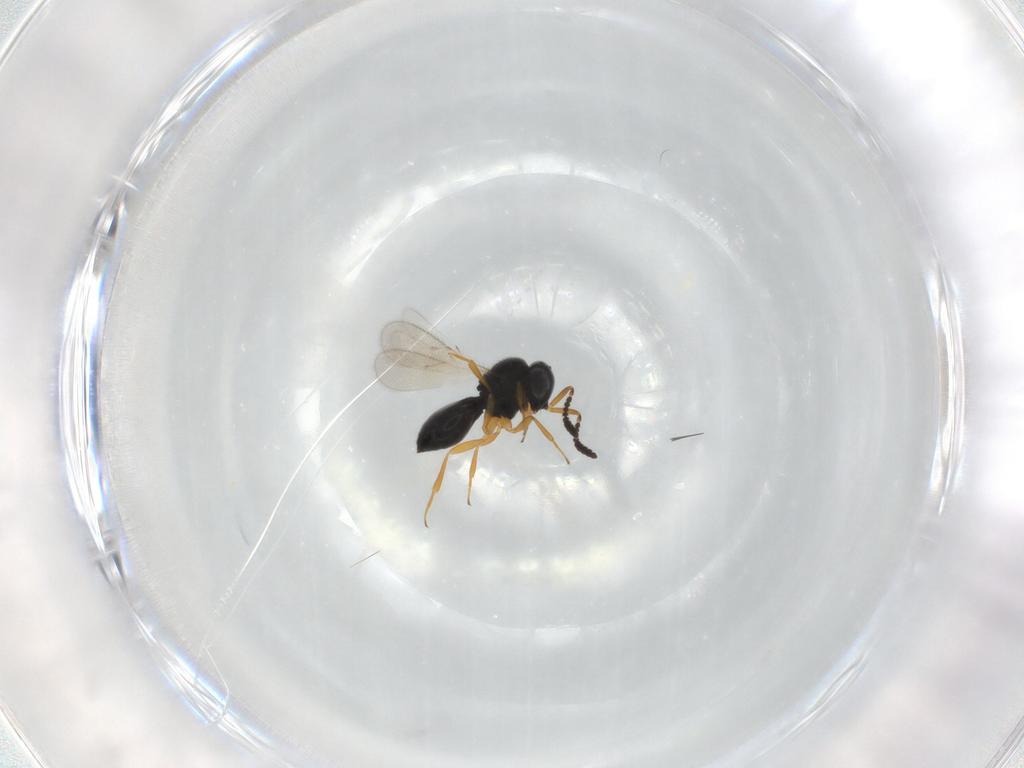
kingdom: Animalia
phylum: Arthropoda
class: Insecta
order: Hymenoptera
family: Scelionidae
